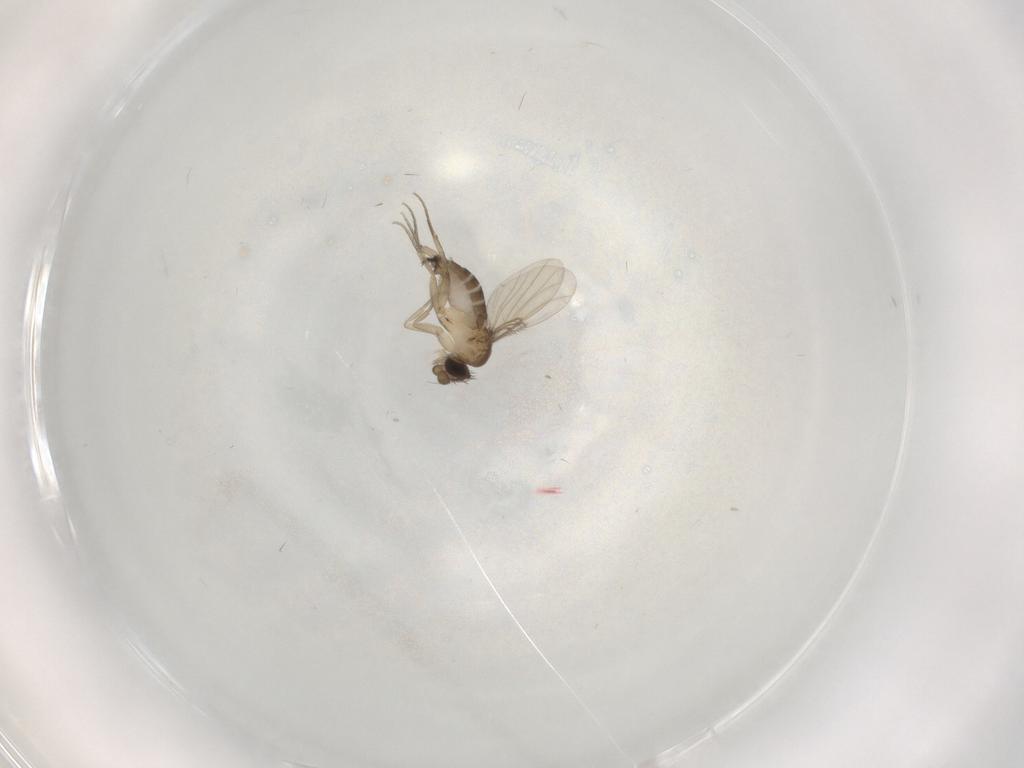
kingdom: Animalia
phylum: Arthropoda
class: Insecta
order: Diptera
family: Phoridae
